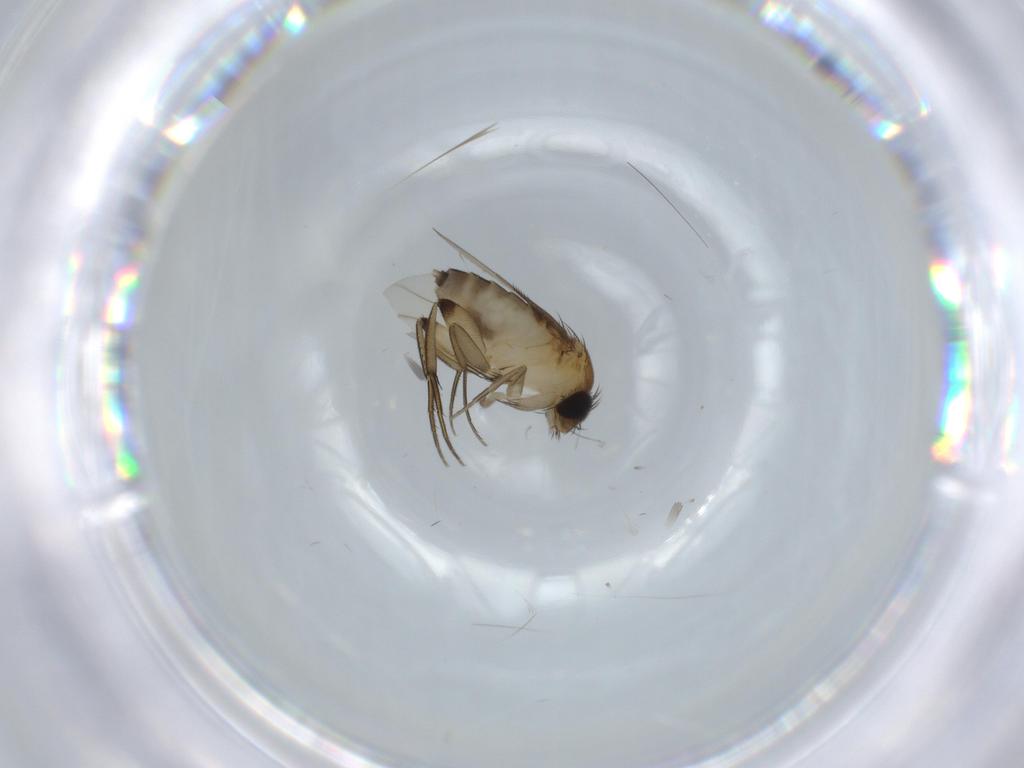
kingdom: Animalia
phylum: Arthropoda
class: Insecta
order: Diptera
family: Phoridae
